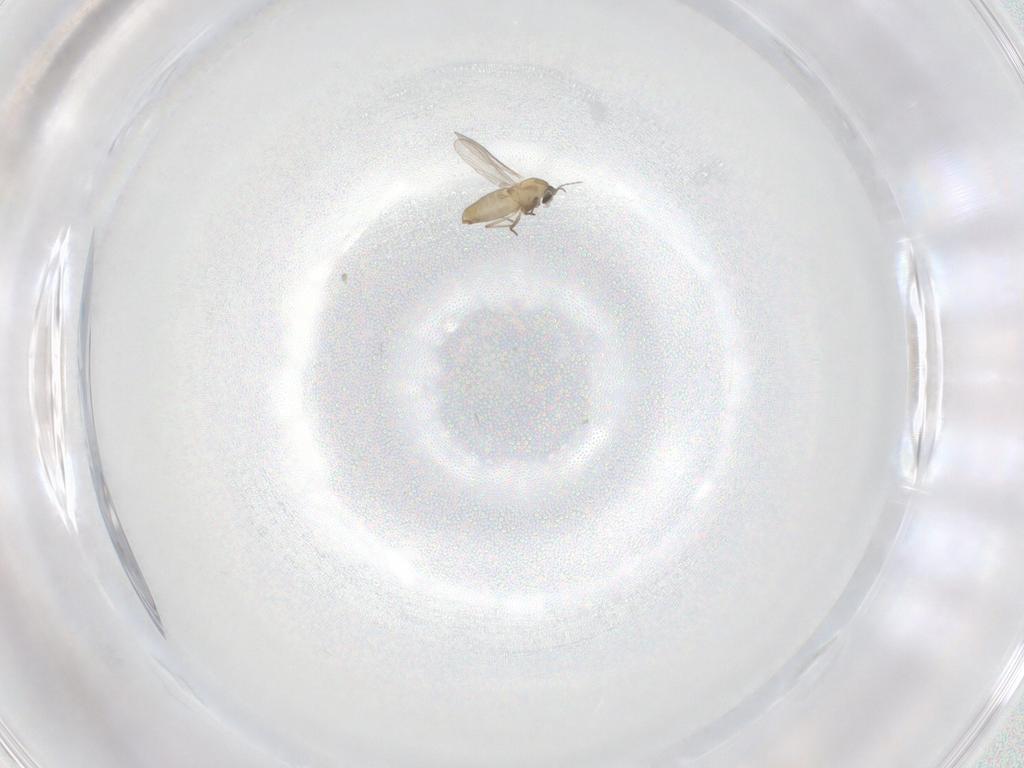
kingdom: Animalia
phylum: Arthropoda
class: Insecta
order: Diptera
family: Chironomidae
